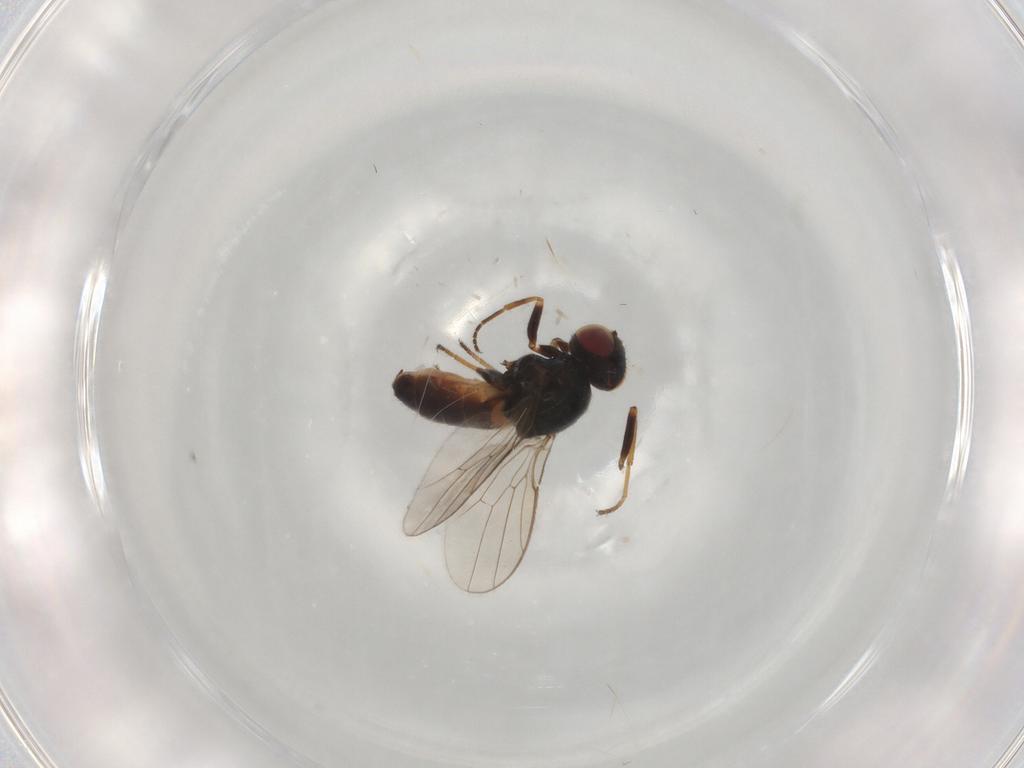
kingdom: Animalia
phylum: Arthropoda
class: Insecta
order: Diptera
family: Chloropidae
